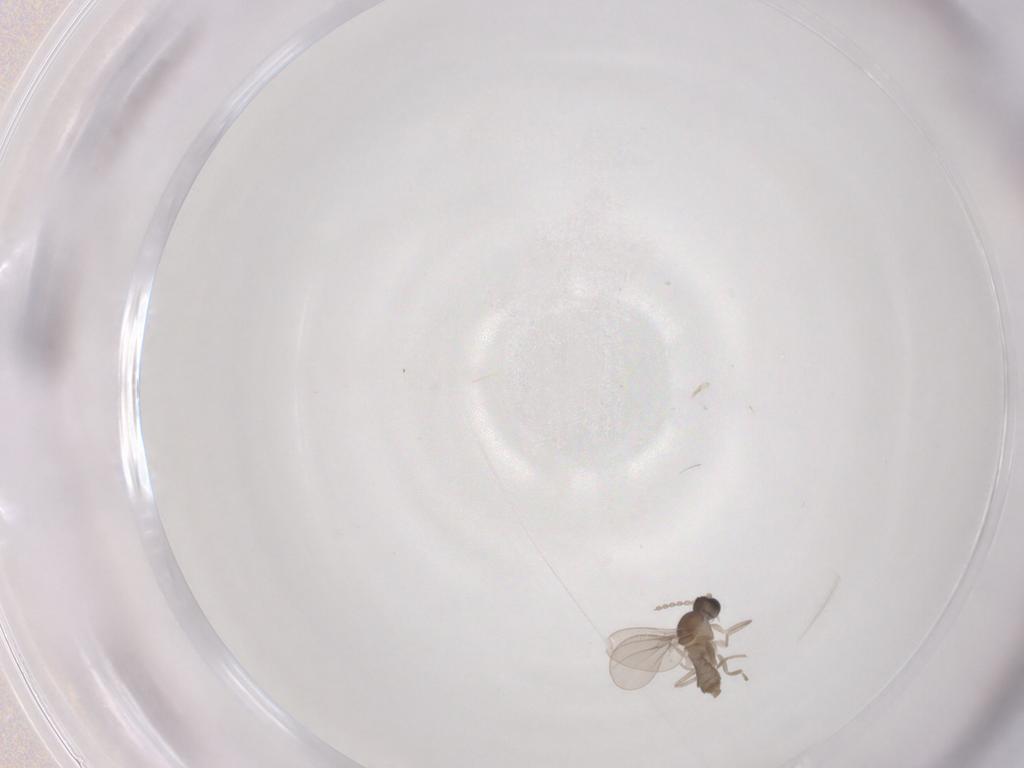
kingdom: Animalia
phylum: Arthropoda
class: Insecta
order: Diptera
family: Cecidomyiidae
